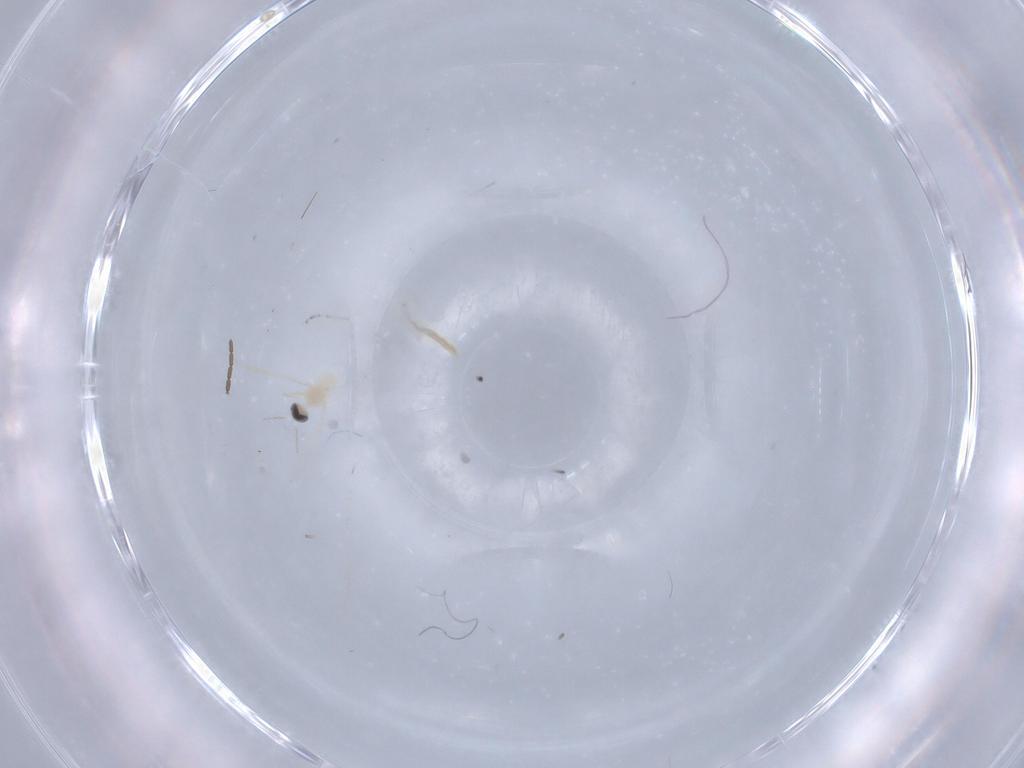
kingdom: Animalia
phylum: Arthropoda
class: Insecta
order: Diptera
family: Cecidomyiidae
